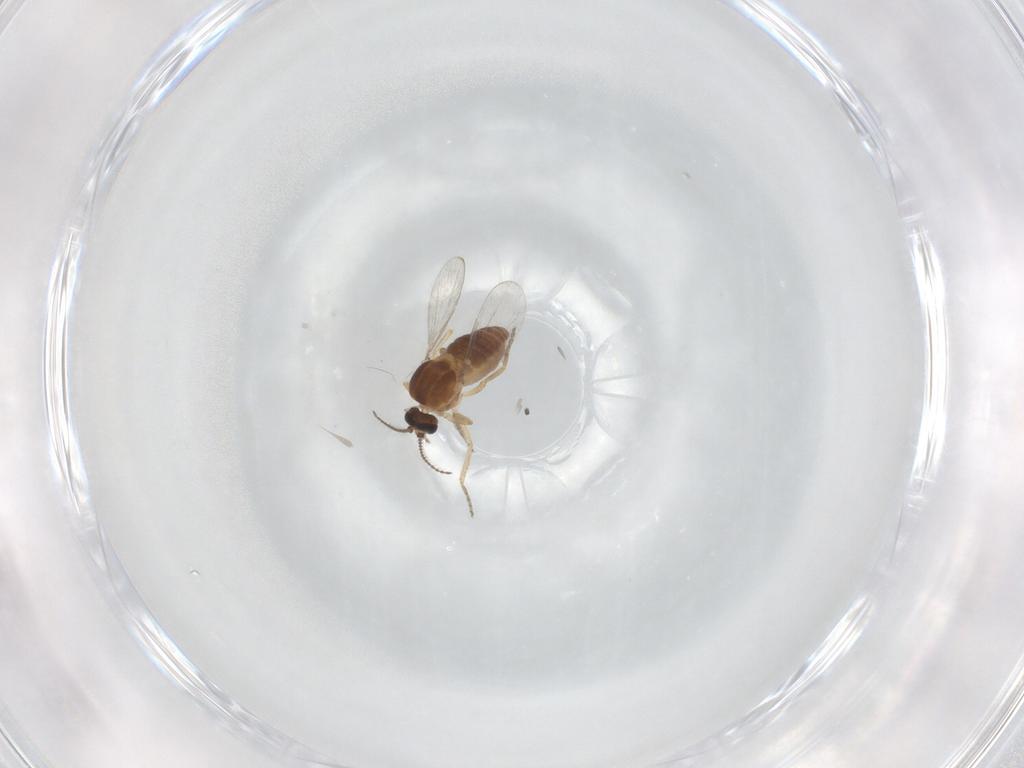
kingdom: Animalia
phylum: Arthropoda
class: Insecta
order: Diptera
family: Ceratopogonidae
